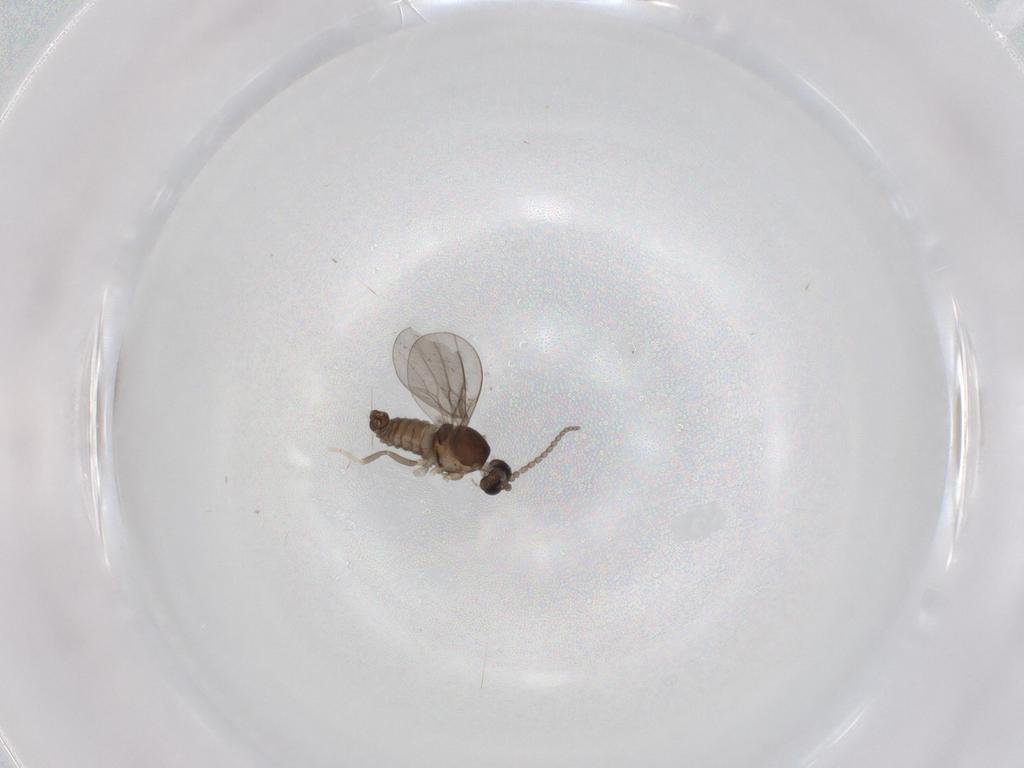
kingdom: Animalia
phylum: Arthropoda
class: Insecta
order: Diptera
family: Cecidomyiidae
